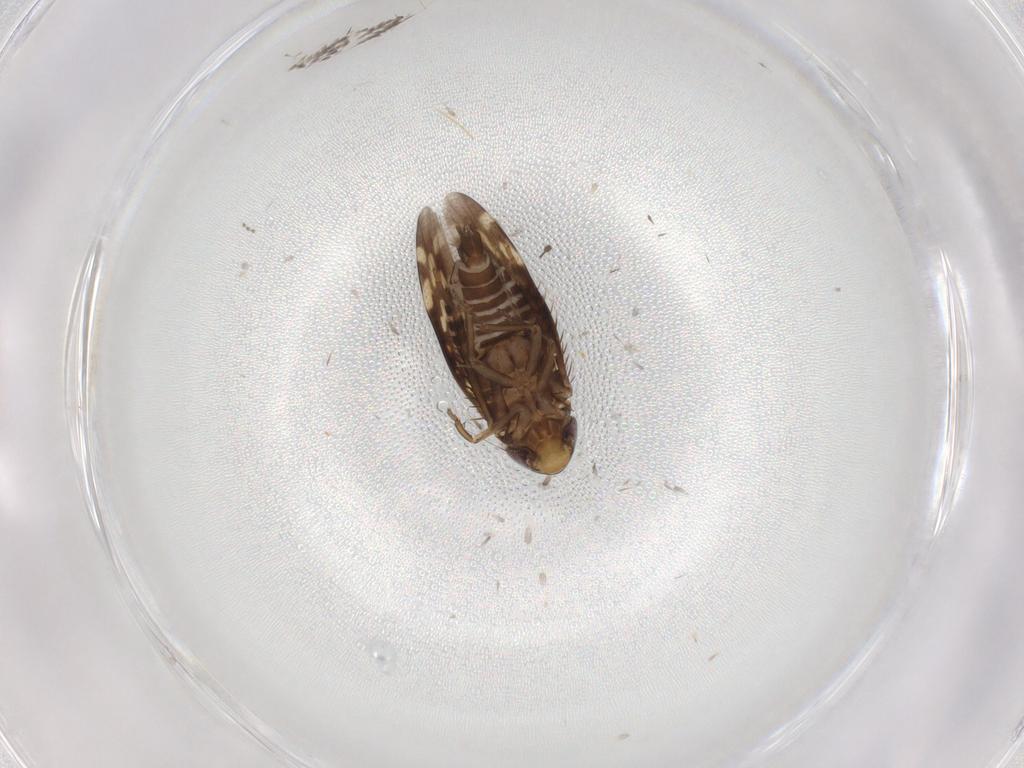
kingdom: Animalia
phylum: Arthropoda
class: Insecta
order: Hemiptera
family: Cicadellidae
